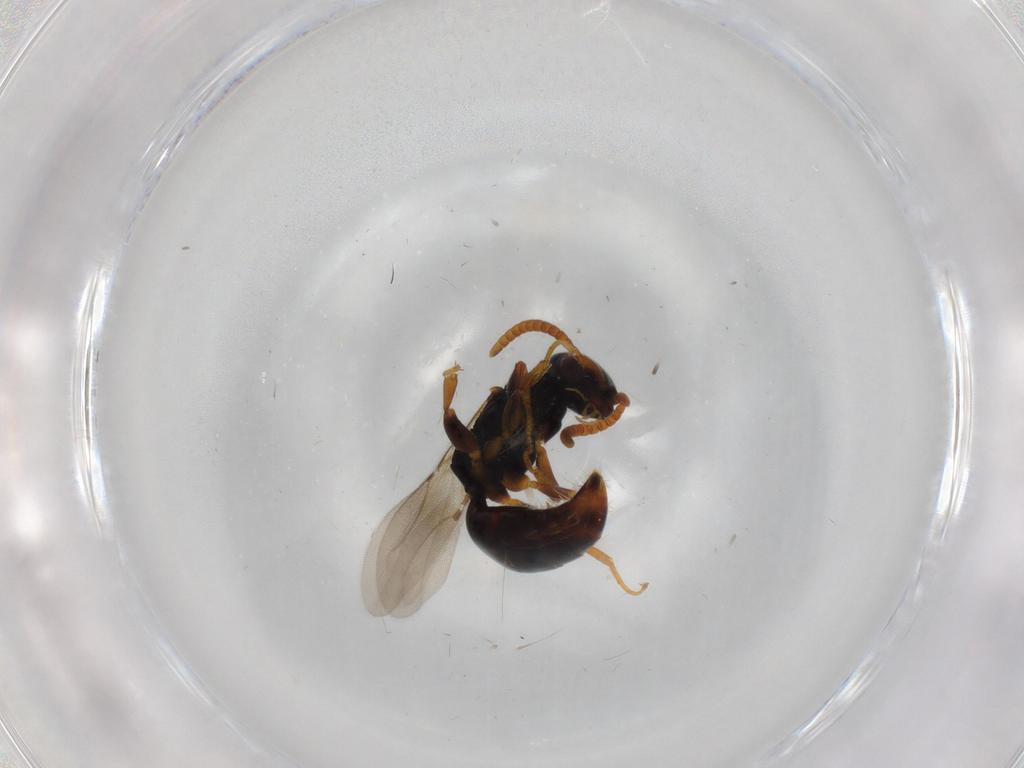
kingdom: Animalia
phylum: Arthropoda
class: Insecta
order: Hymenoptera
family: Bethylidae
